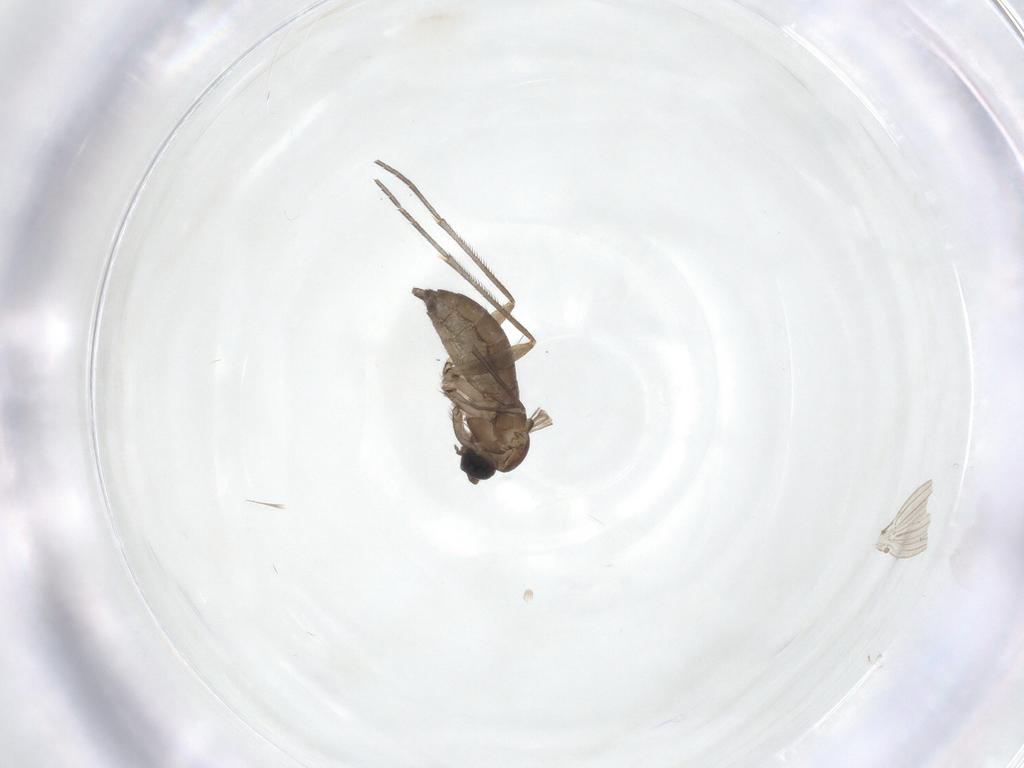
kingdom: Animalia
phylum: Arthropoda
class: Insecta
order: Diptera
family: Sciaridae
